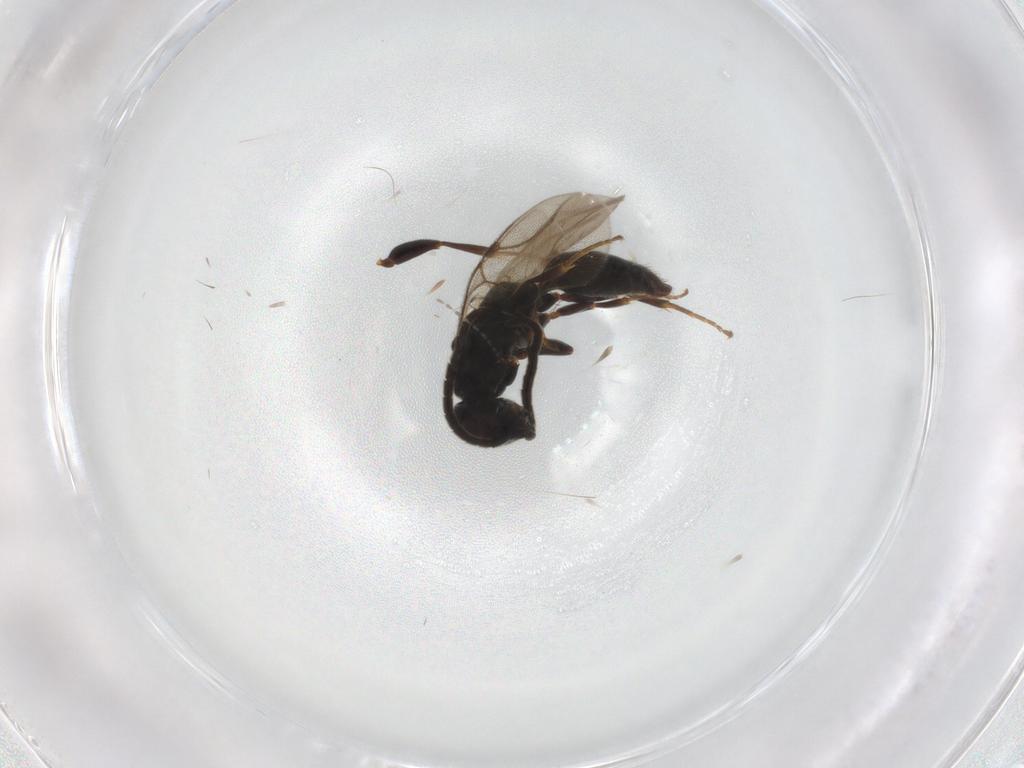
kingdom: Animalia
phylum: Arthropoda
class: Insecta
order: Hymenoptera
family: Bethylidae
